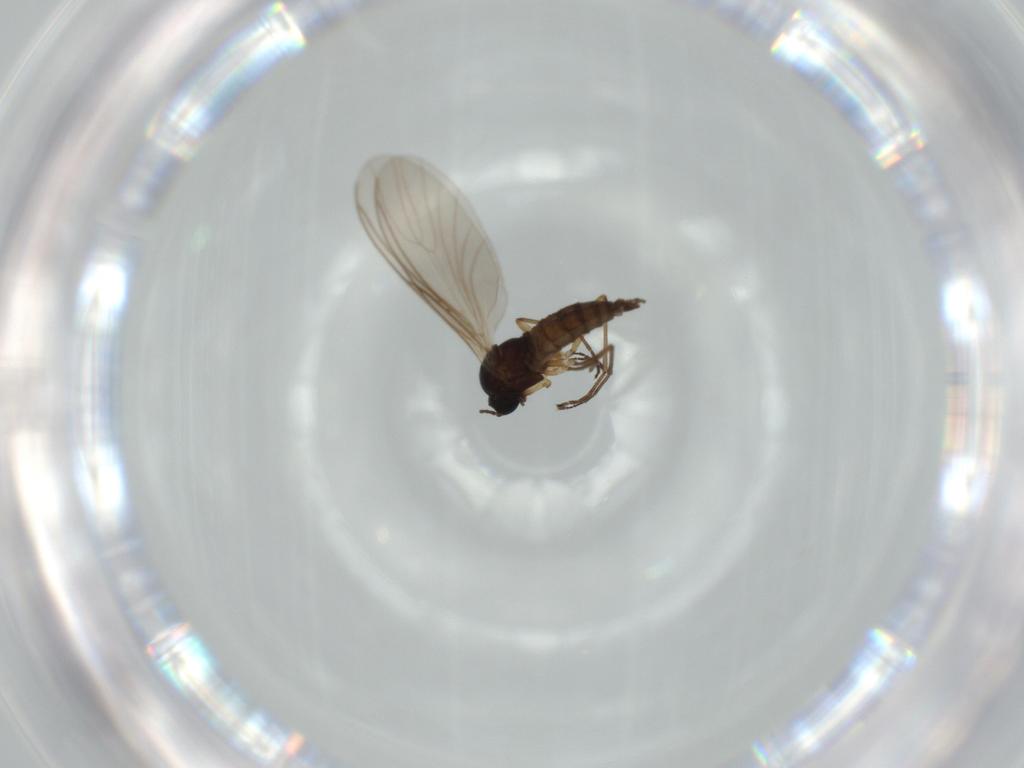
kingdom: Animalia
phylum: Arthropoda
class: Insecta
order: Diptera
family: Sciaridae
